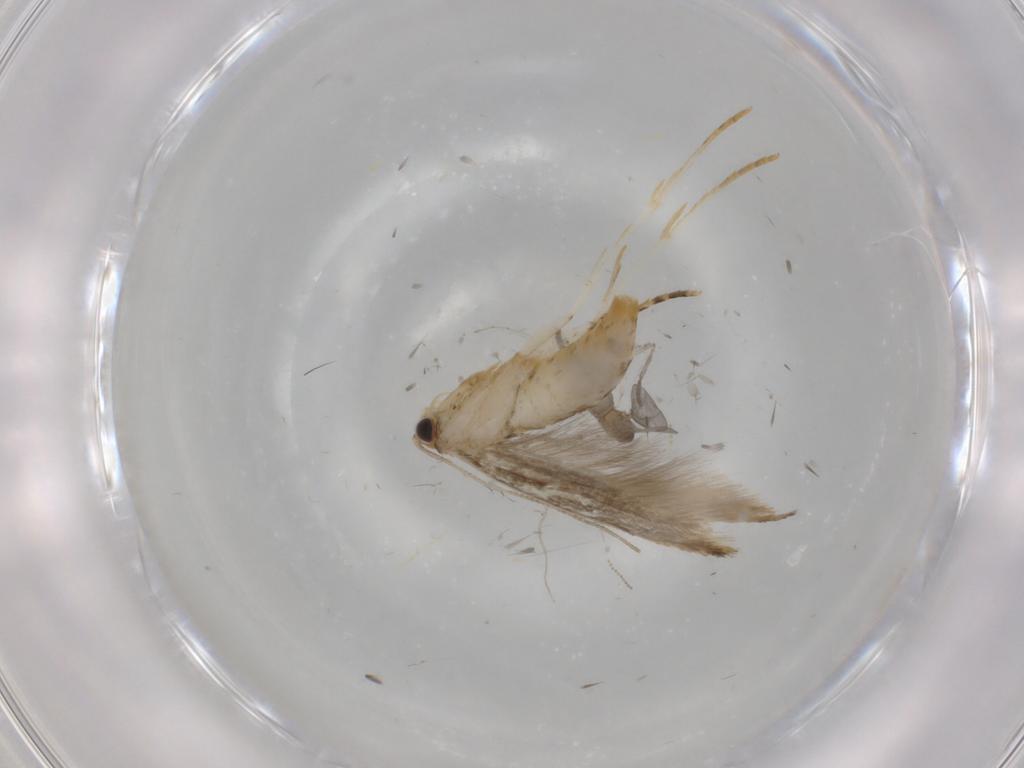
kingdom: Animalia
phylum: Arthropoda
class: Insecta
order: Lepidoptera
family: Tineidae
